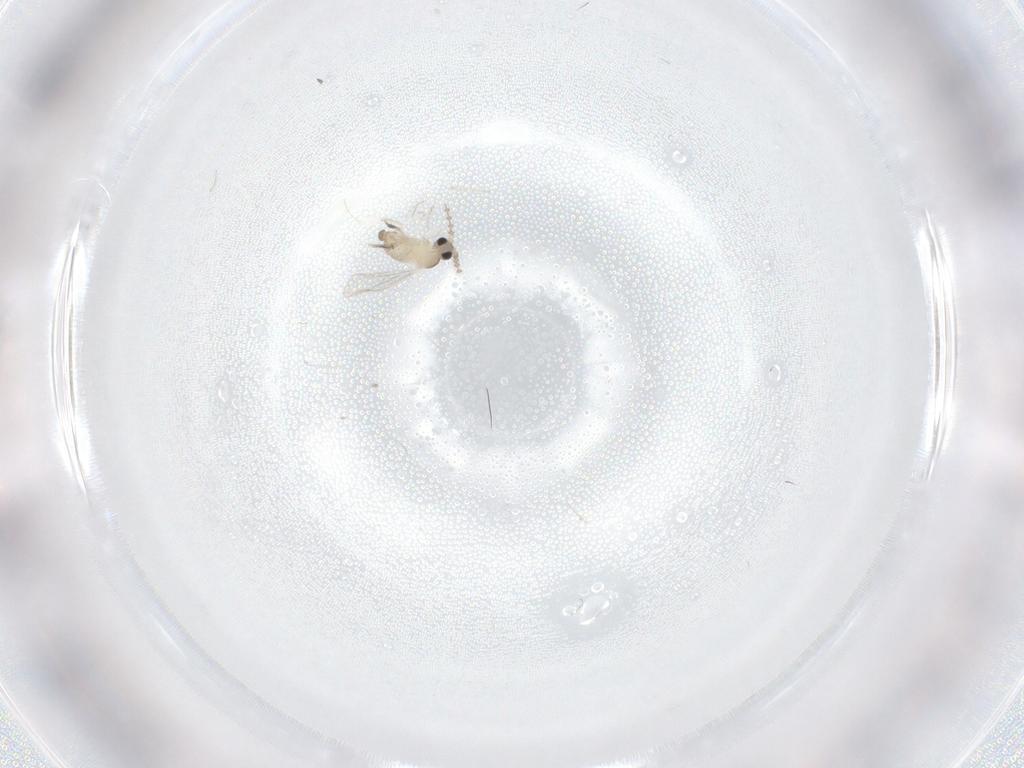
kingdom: Animalia
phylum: Arthropoda
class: Insecta
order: Diptera
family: Cecidomyiidae
